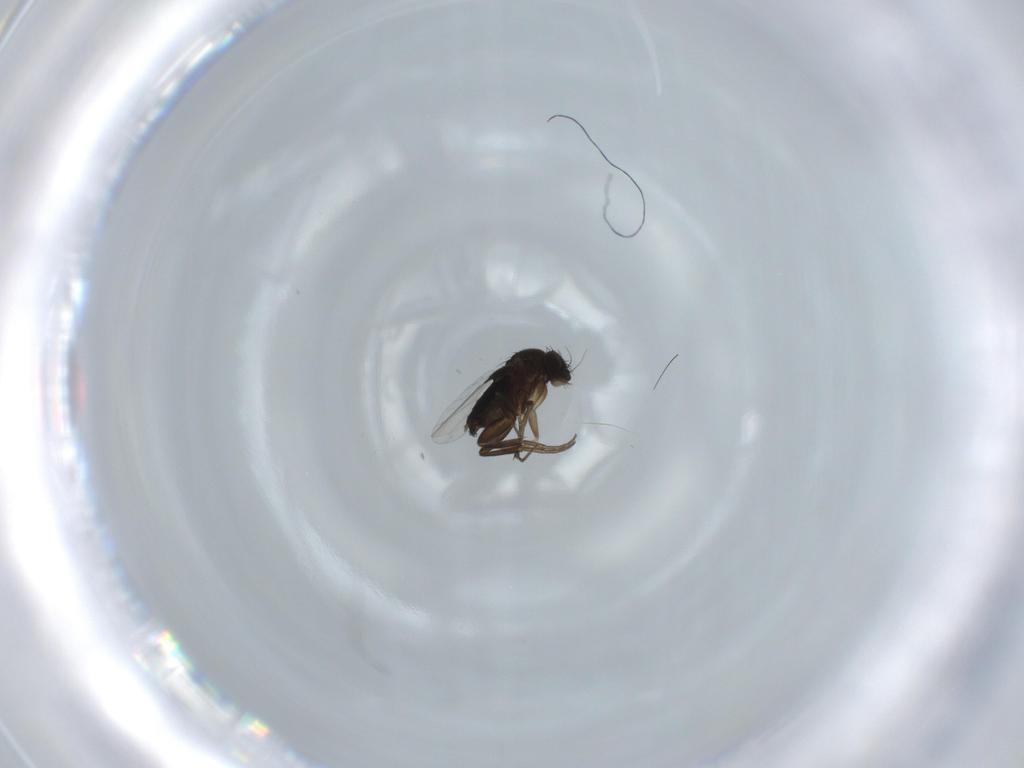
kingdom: Animalia
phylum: Arthropoda
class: Insecta
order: Diptera
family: Phoridae
